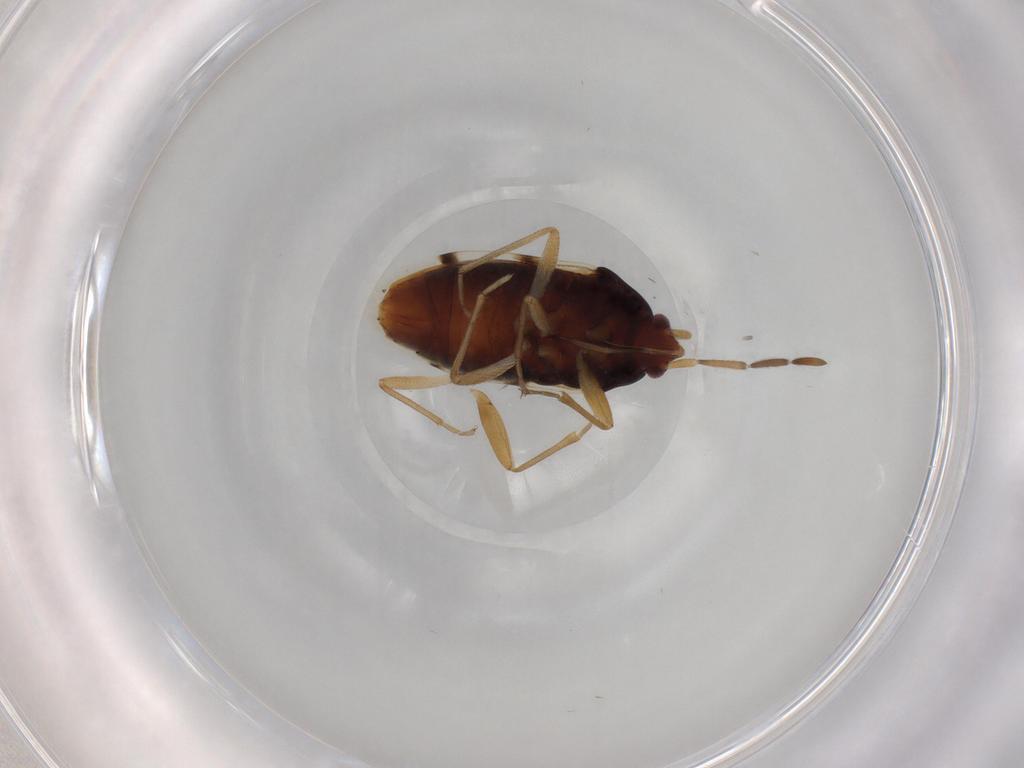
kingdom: Animalia
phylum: Arthropoda
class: Insecta
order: Hemiptera
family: Rhyparochromidae
